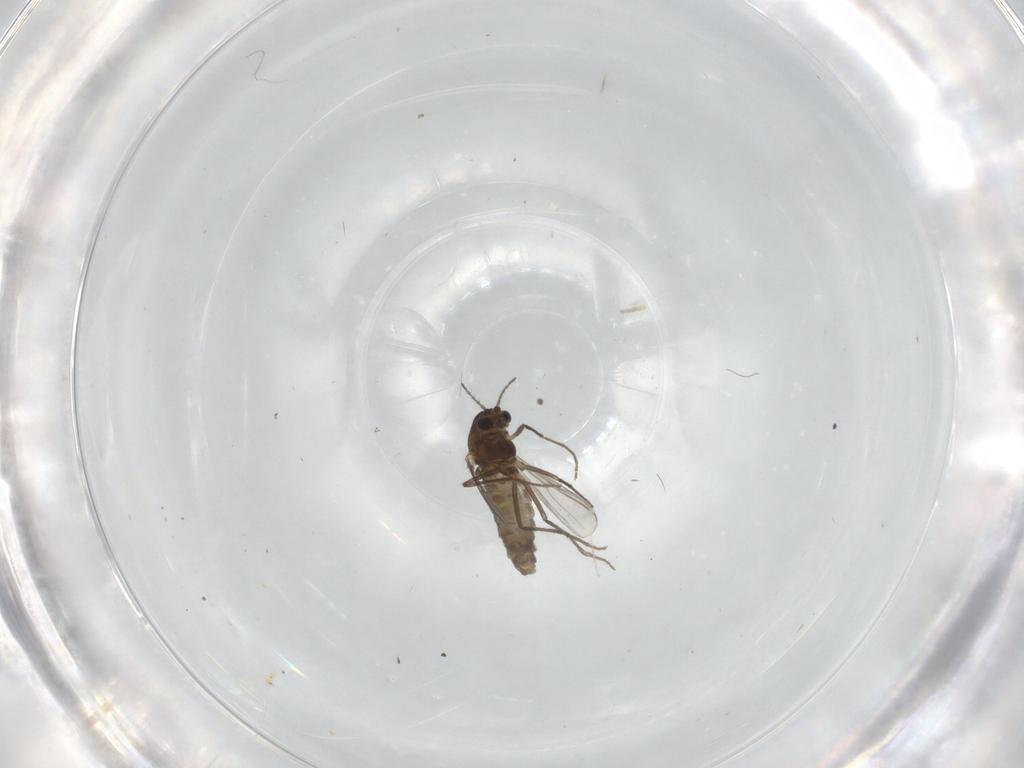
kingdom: Animalia
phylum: Arthropoda
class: Insecta
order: Diptera
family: Chironomidae
